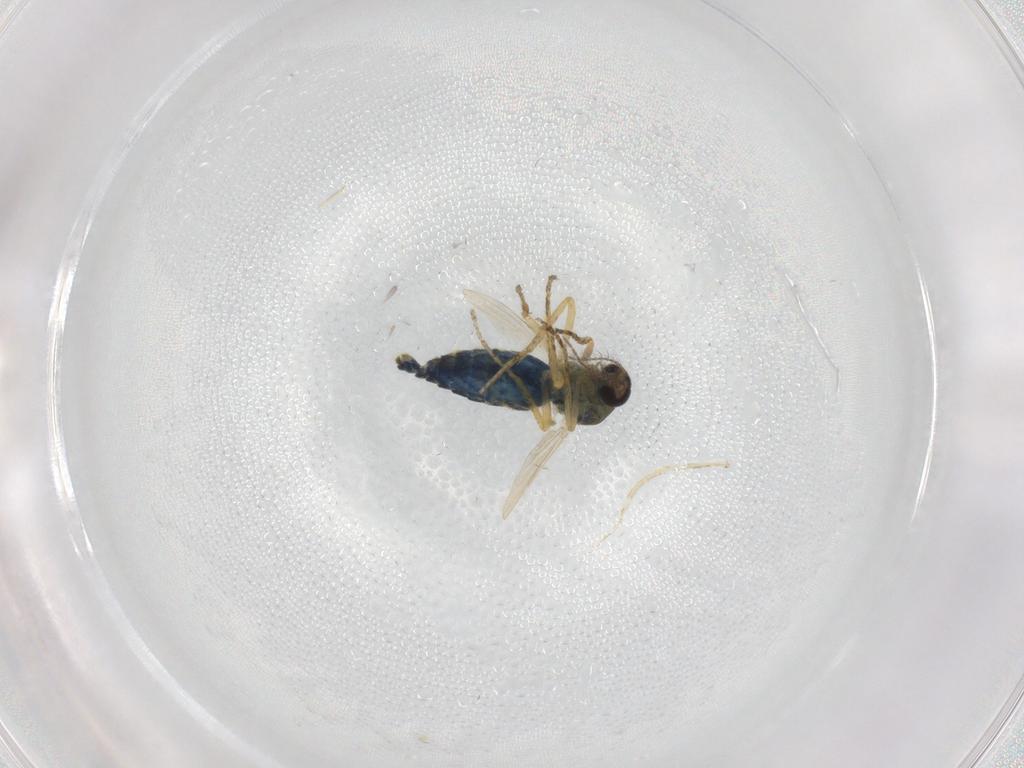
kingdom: Animalia
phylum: Arthropoda
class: Insecta
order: Diptera
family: Ceratopogonidae
